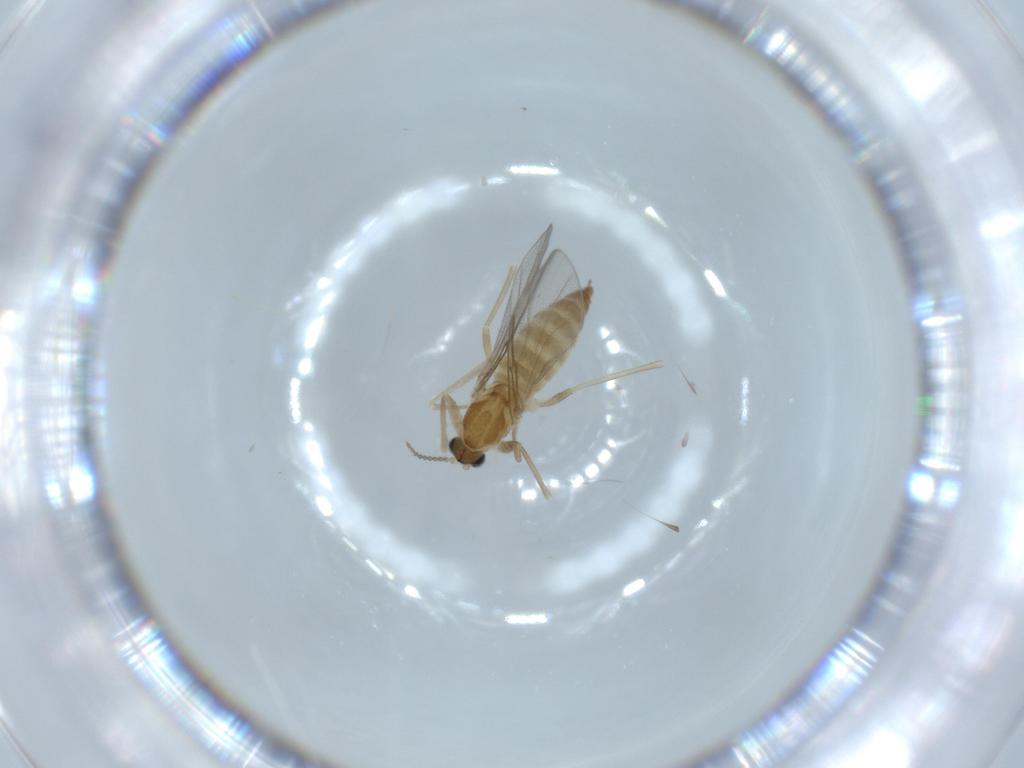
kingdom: Animalia
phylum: Arthropoda
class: Insecta
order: Diptera
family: Cecidomyiidae
